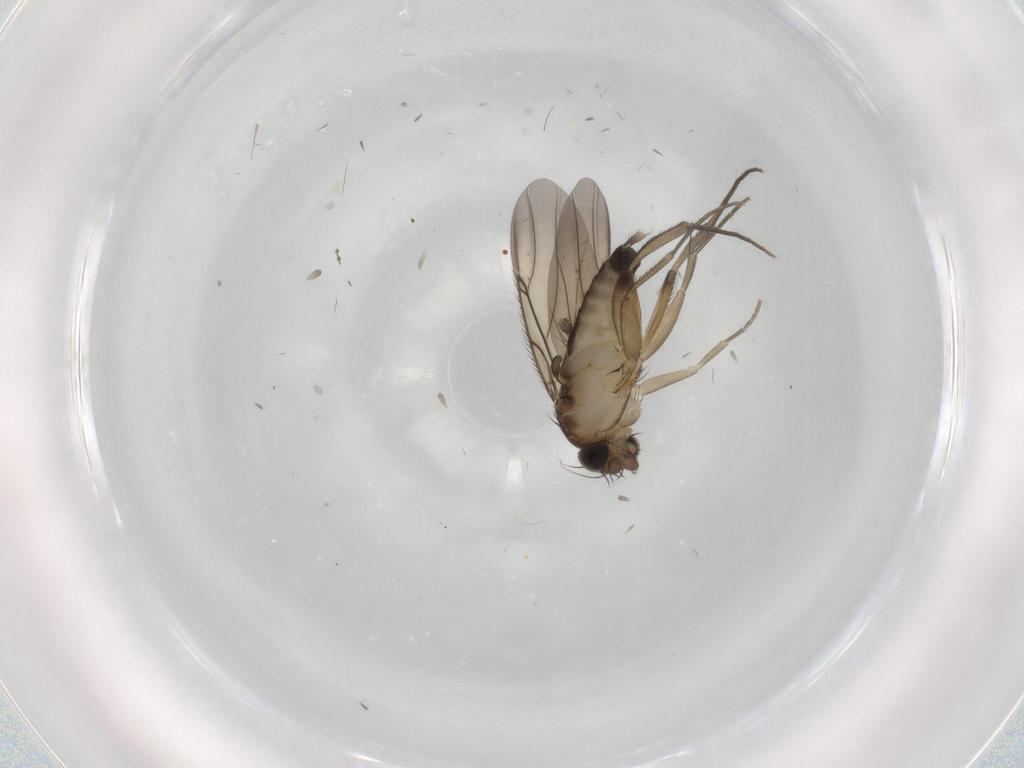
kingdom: Animalia
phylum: Arthropoda
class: Insecta
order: Diptera
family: Phoridae
